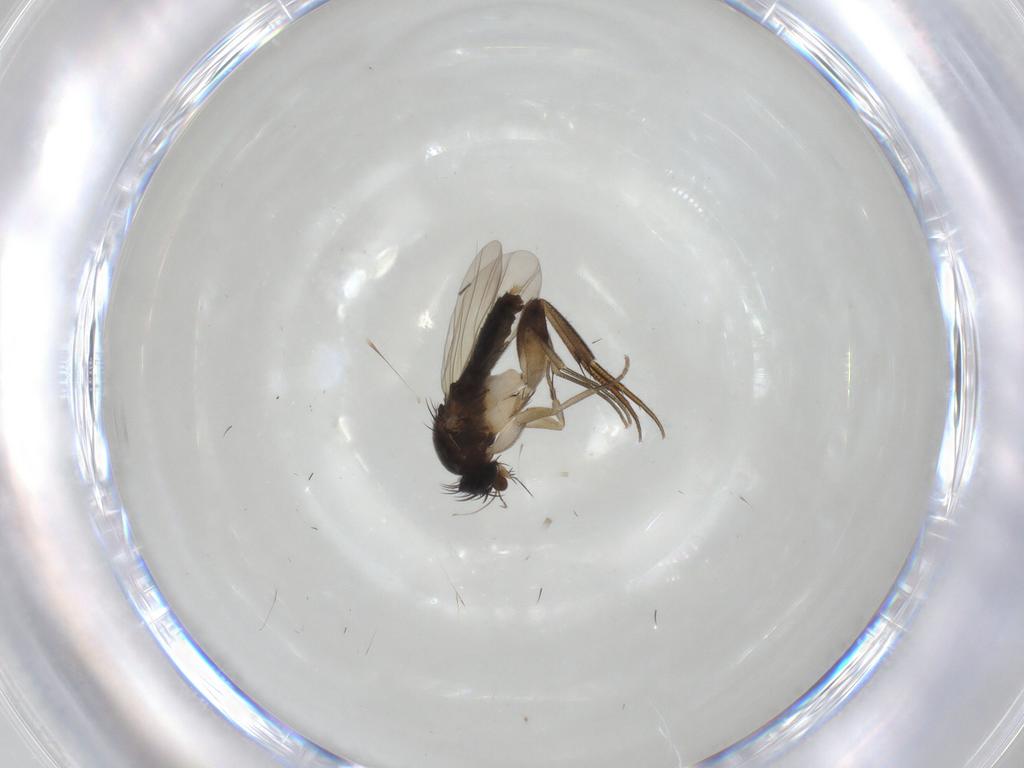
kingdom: Animalia
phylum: Arthropoda
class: Insecta
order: Diptera
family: Phoridae
